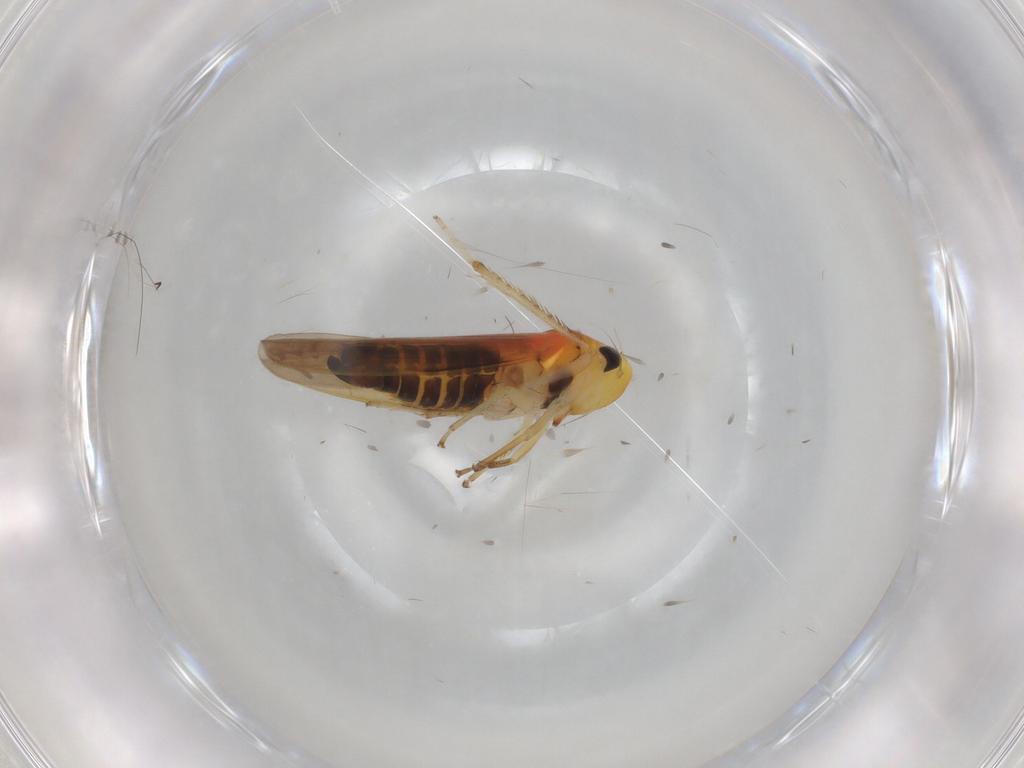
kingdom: Animalia
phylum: Arthropoda
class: Insecta
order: Hemiptera
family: Cicadellidae
